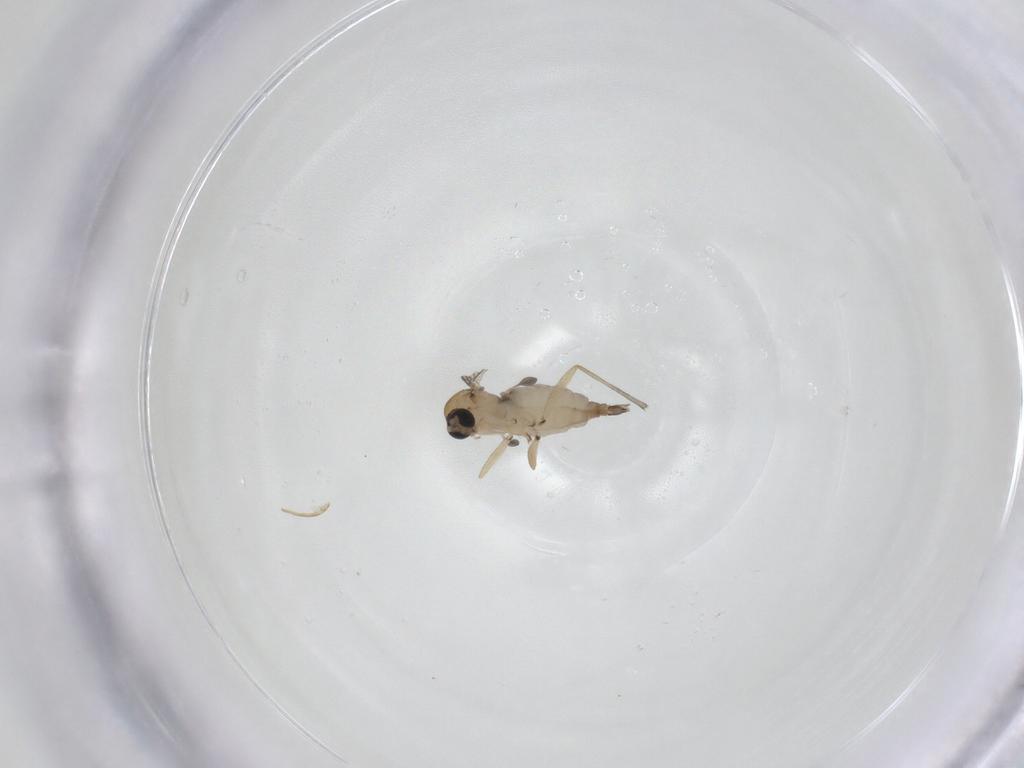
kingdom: Animalia
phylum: Arthropoda
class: Insecta
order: Diptera
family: Sciaridae
